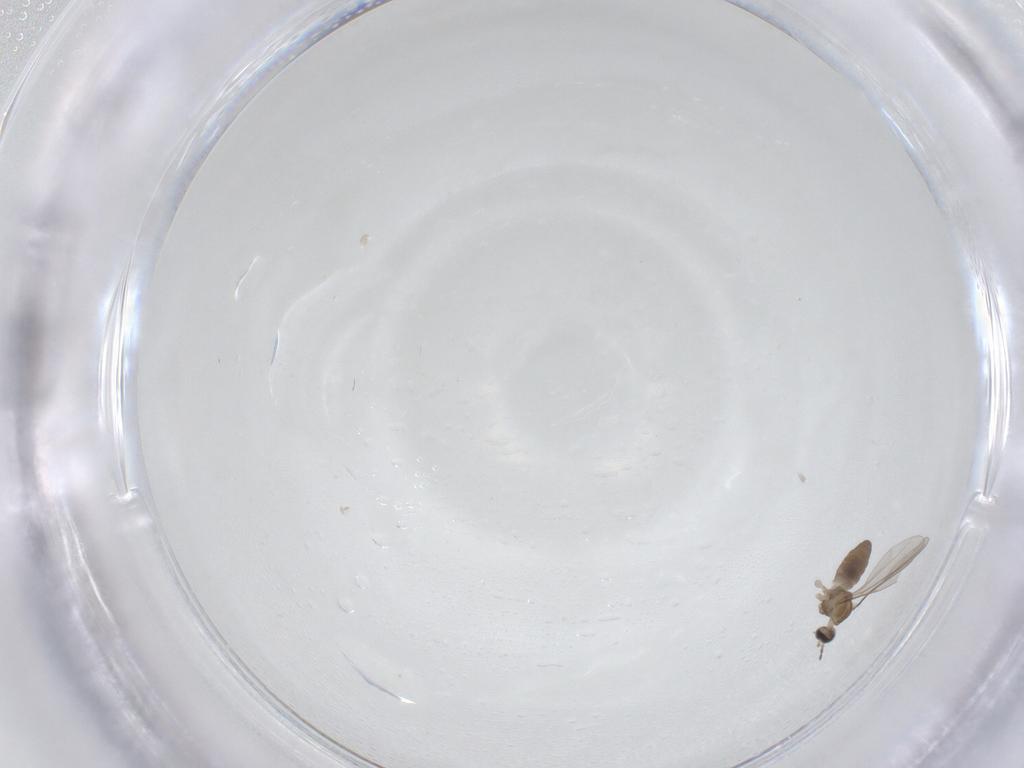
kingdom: Animalia
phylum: Arthropoda
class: Insecta
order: Diptera
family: Cecidomyiidae
